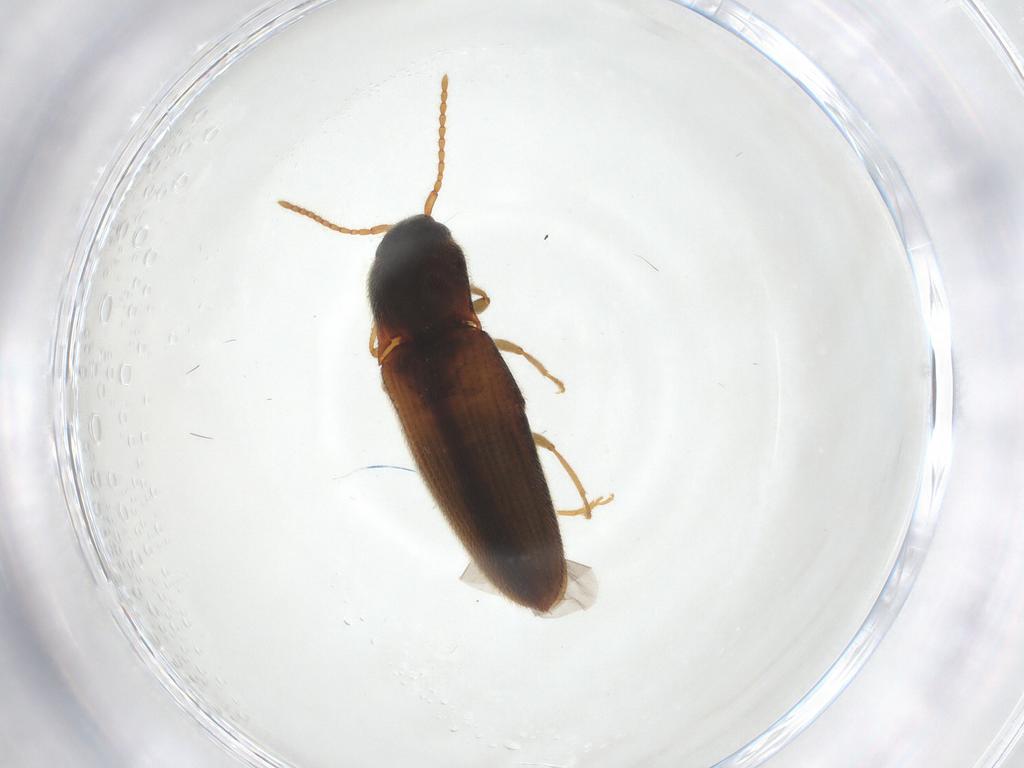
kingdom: Animalia
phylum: Arthropoda
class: Insecta
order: Coleoptera
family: Elateridae
